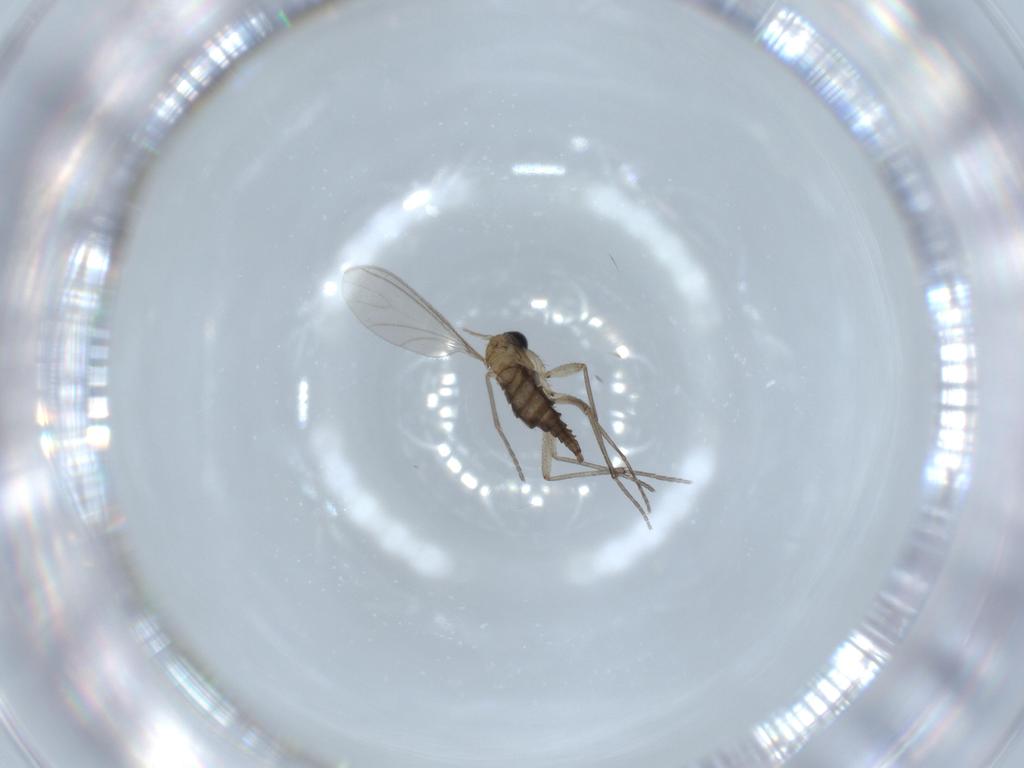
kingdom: Animalia
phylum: Arthropoda
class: Insecta
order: Diptera
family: Sciaridae
